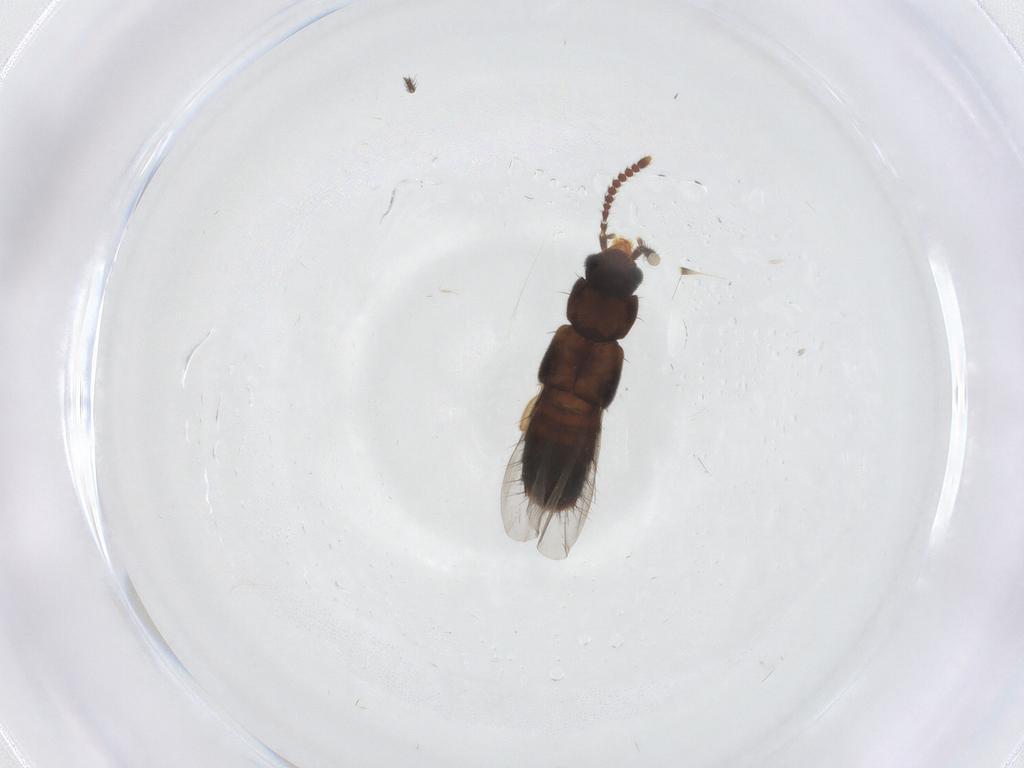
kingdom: Animalia
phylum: Arthropoda
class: Insecta
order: Coleoptera
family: Staphylinidae
